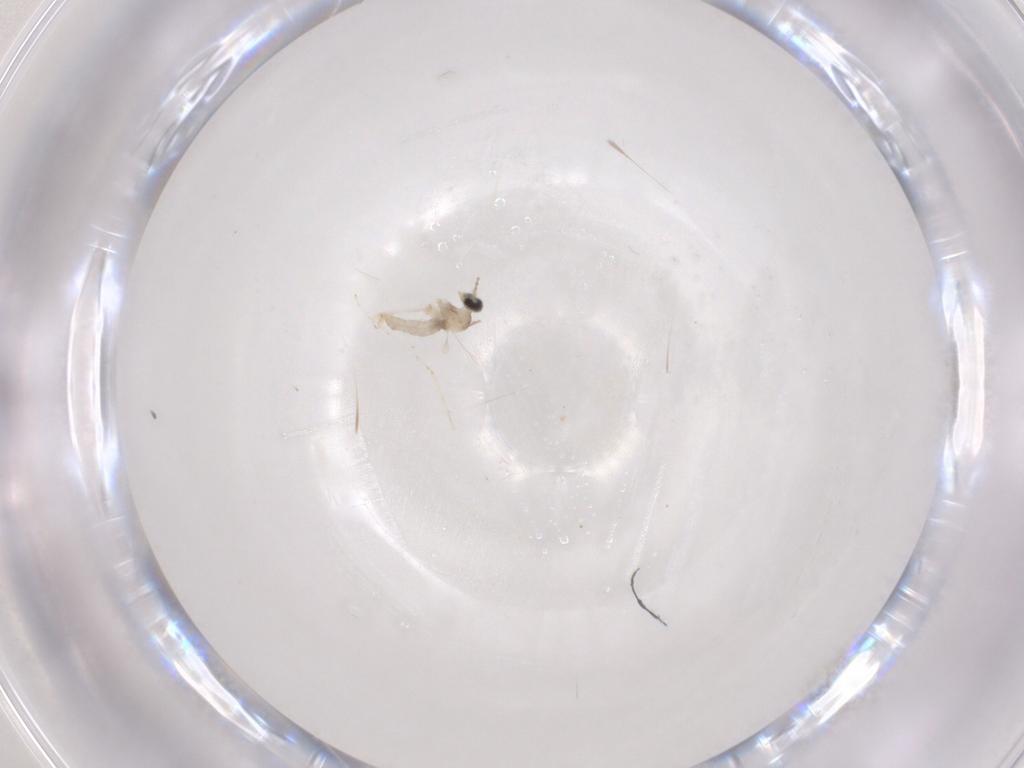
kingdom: Animalia
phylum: Arthropoda
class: Insecta
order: Diptera
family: Cecidomyiidae
